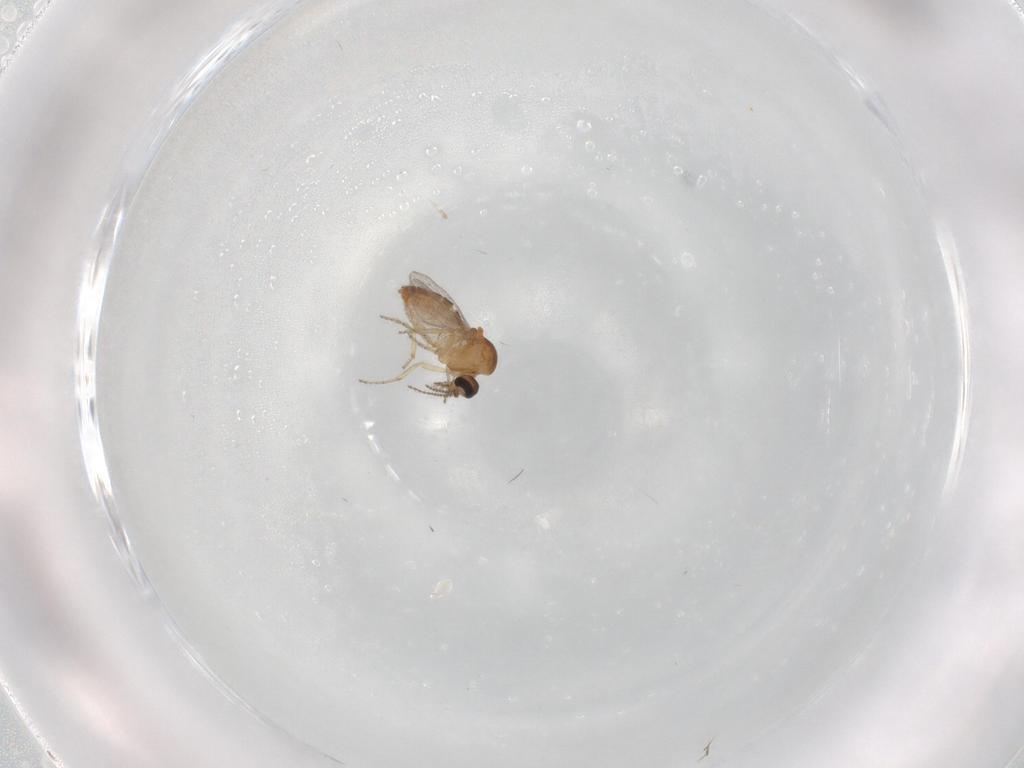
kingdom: Animalia
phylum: Arthropoda
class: Insecta
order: Diptera
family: Ceratopogonidae
